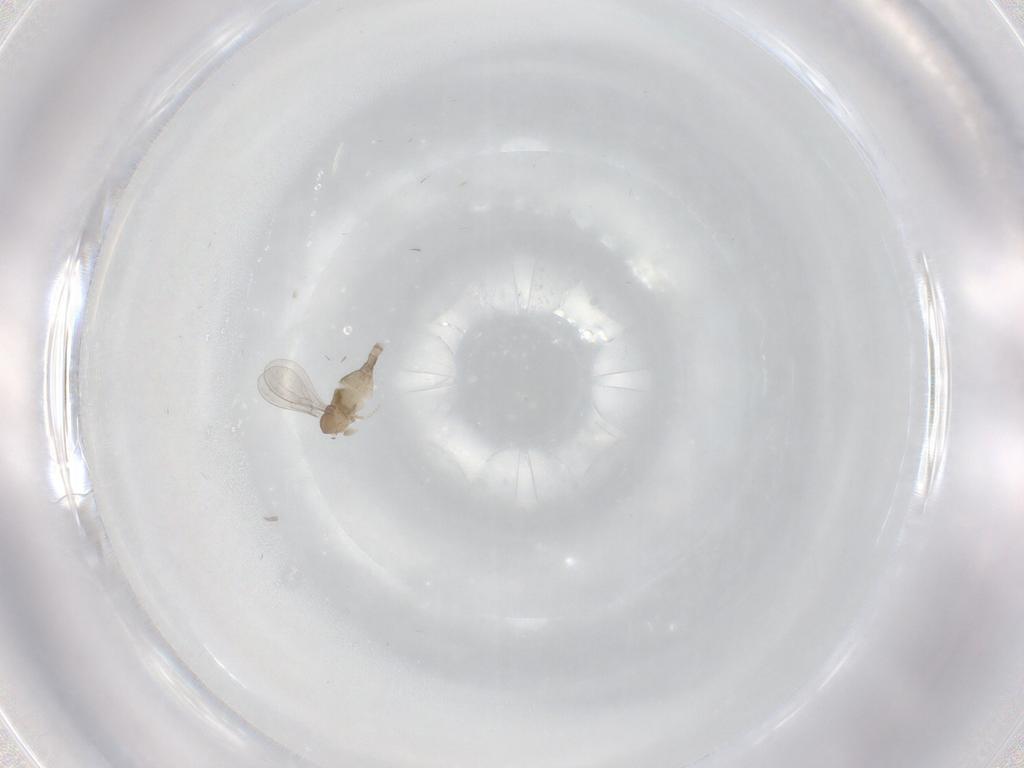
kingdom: Animalia
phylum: Arthropoda
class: Insecta
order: Diptera
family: Cecidomyiidae
